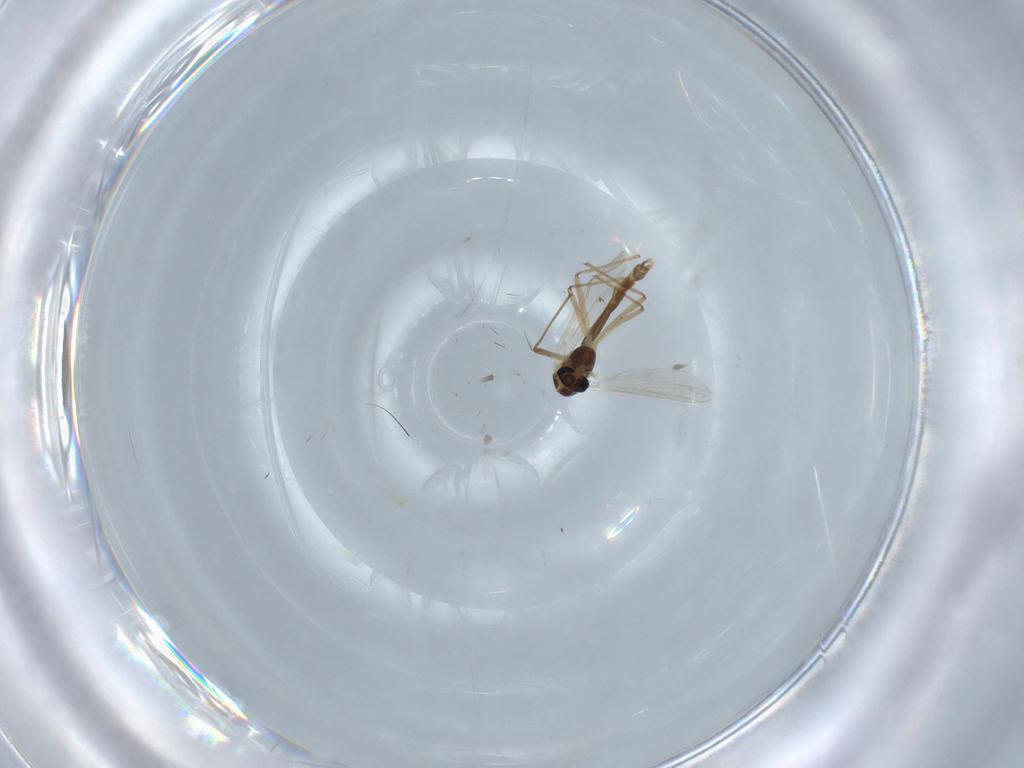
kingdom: Animalia
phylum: Arthropoda
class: Insecta
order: Diptera
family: Chironomidae
